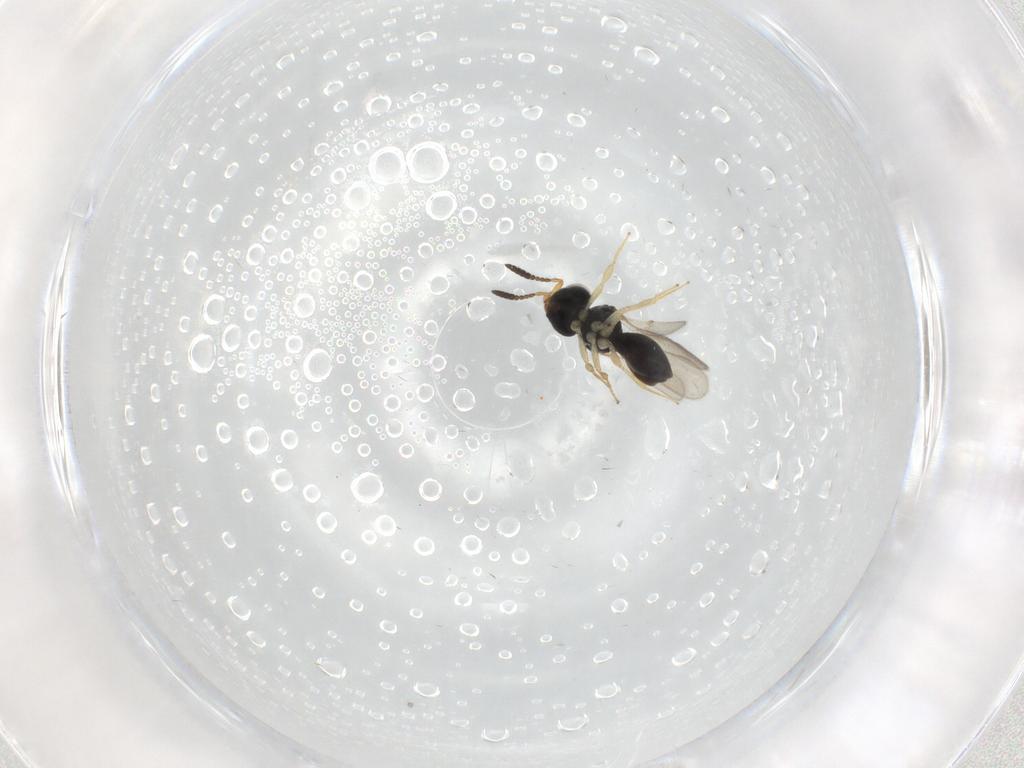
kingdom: Animalia
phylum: Arthropoda
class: Insecta
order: Hymenoptera
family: Scelionidae
